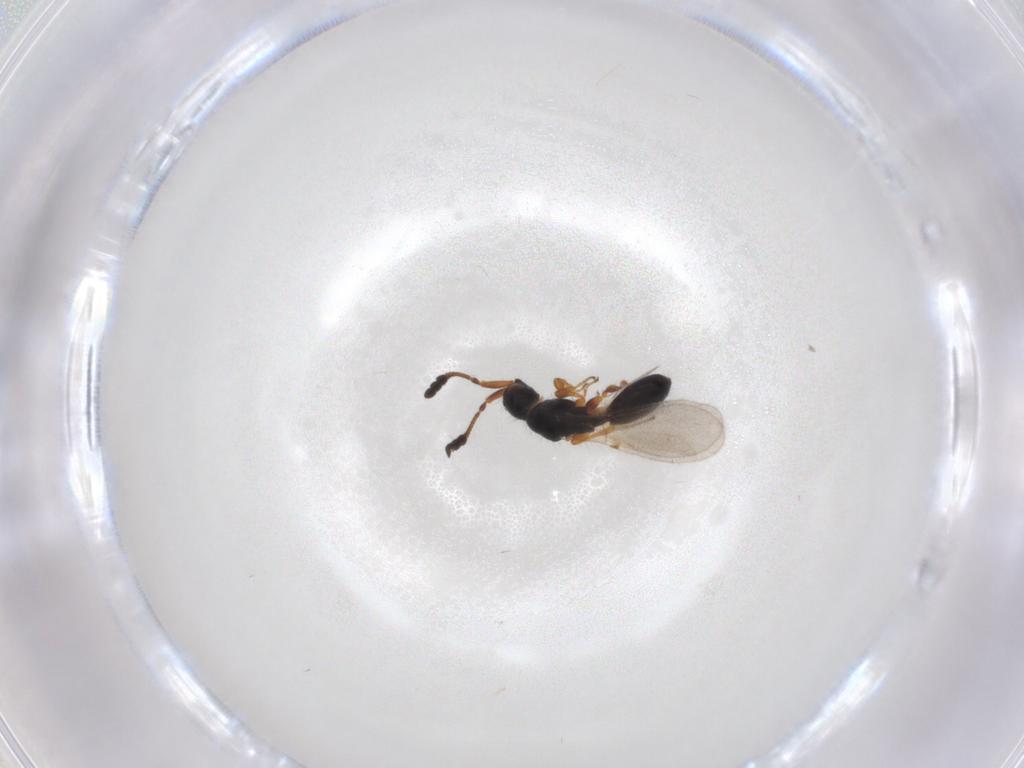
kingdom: Animalia
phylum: Arthropoda
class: Insecta
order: Hymenoptera
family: Diapriidae
